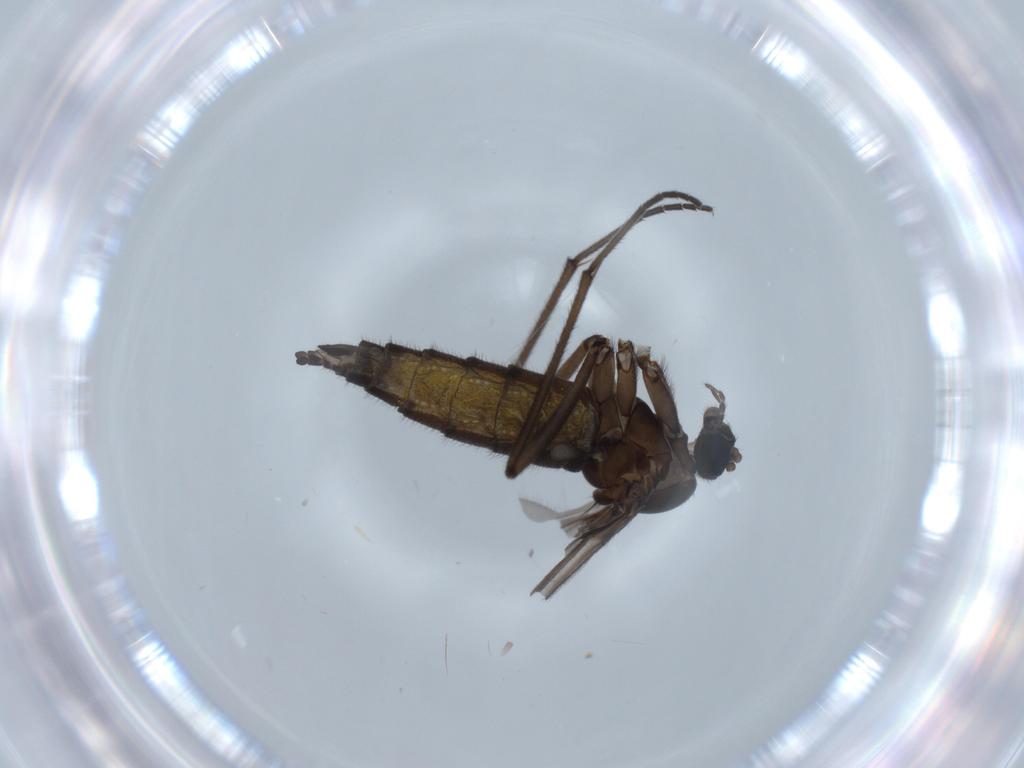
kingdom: Animalia
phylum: Arthropoda
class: Insecta
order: Diptera
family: Sciaridae
